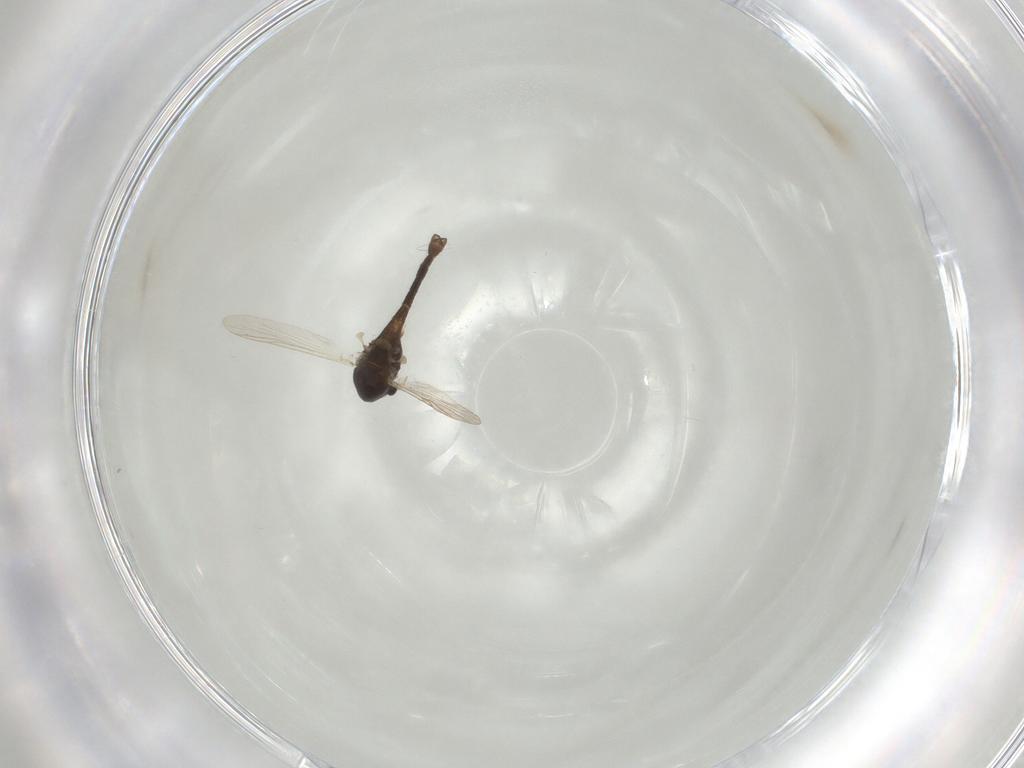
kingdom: Animalia
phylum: Arthropoda
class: Insecta
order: Diptera
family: Chironomidae
